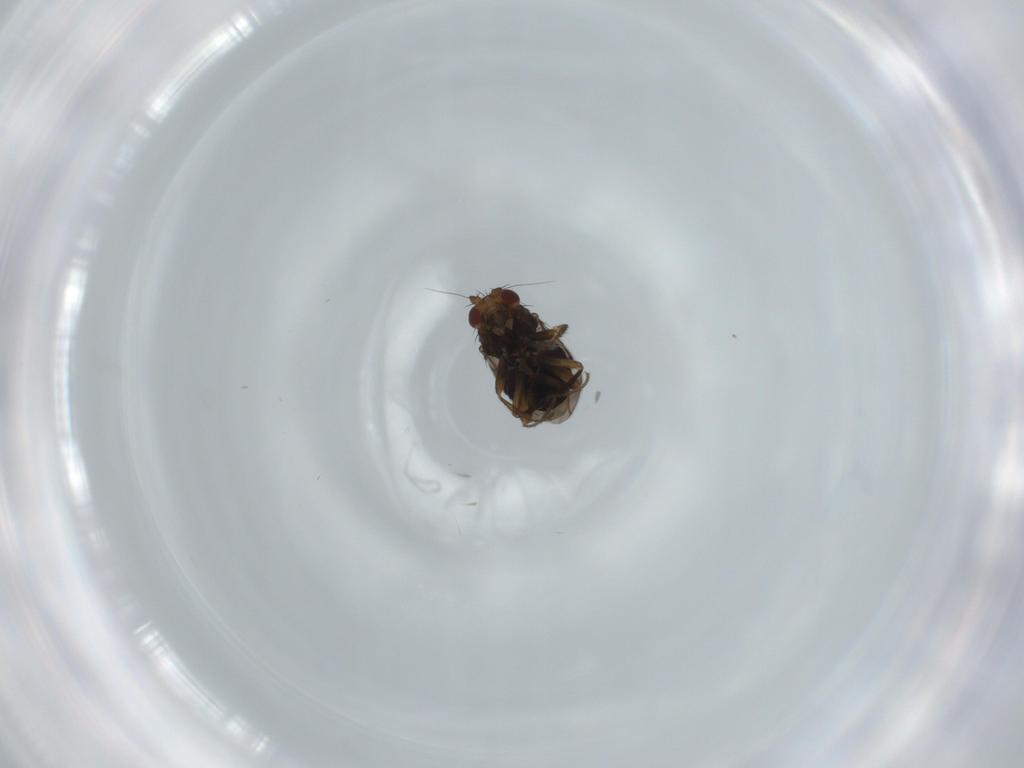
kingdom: Animalia
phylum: Arthropoda
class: Insecta
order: Diptera
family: Sphaeroceridae
